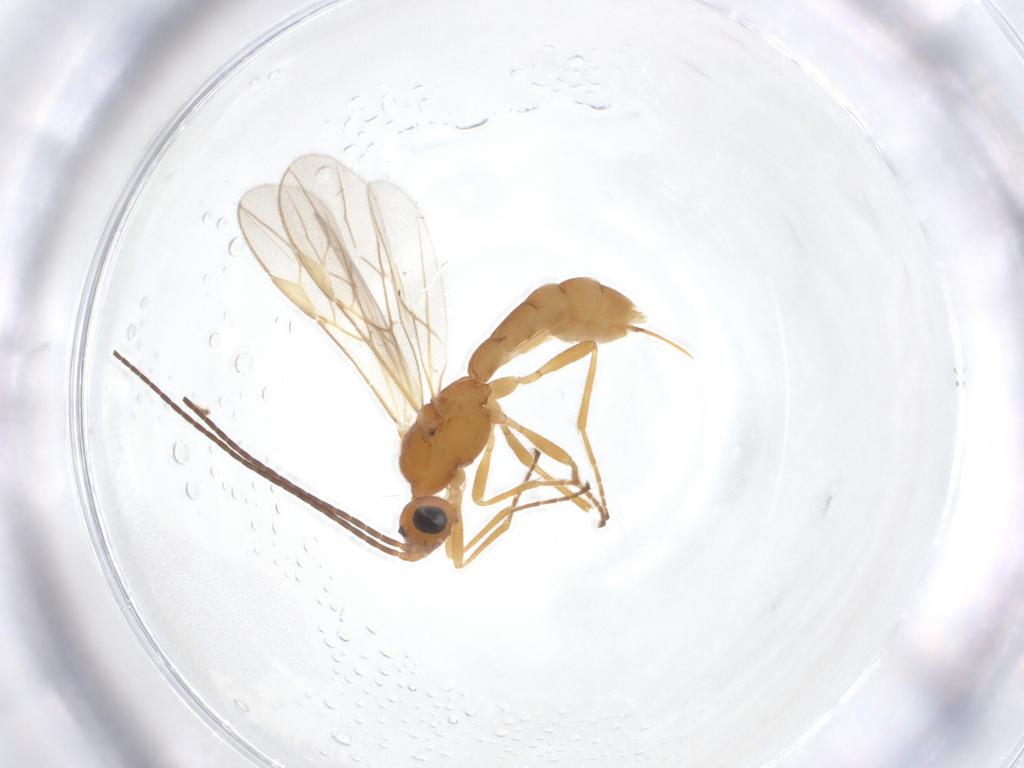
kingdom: Animalia
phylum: Arthropoda
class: Insecta
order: Hymenoptera
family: Braconidae
